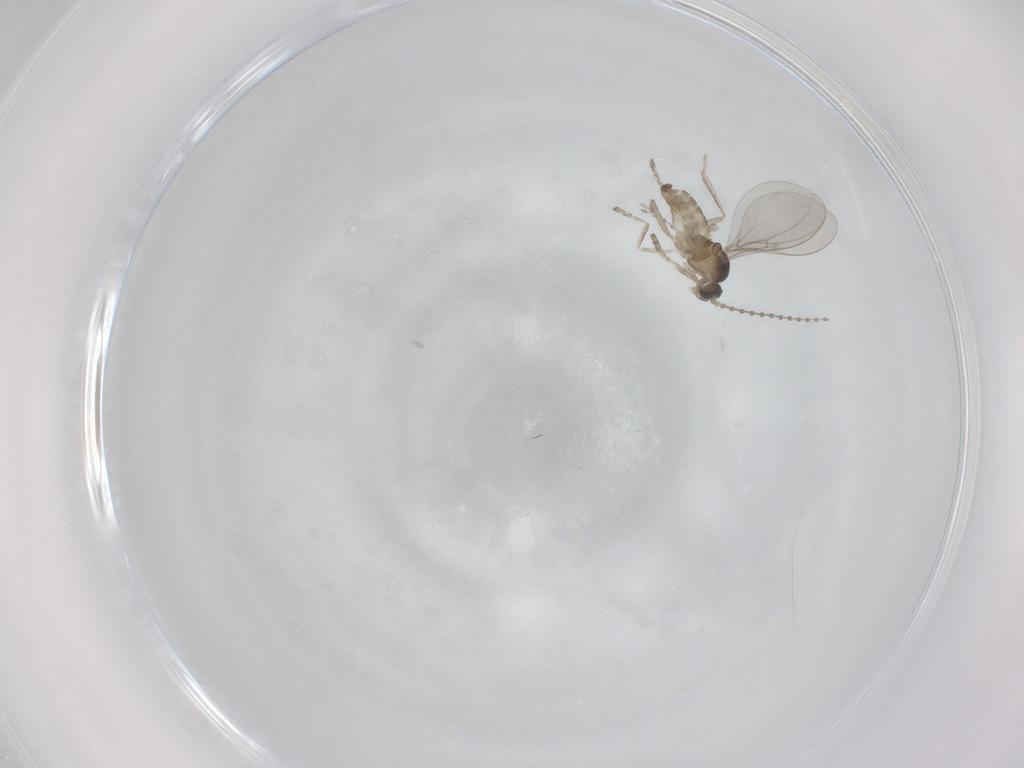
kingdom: Animalia
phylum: Arthropoda
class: Insecta
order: Diptera
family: Cecidomyiidae
